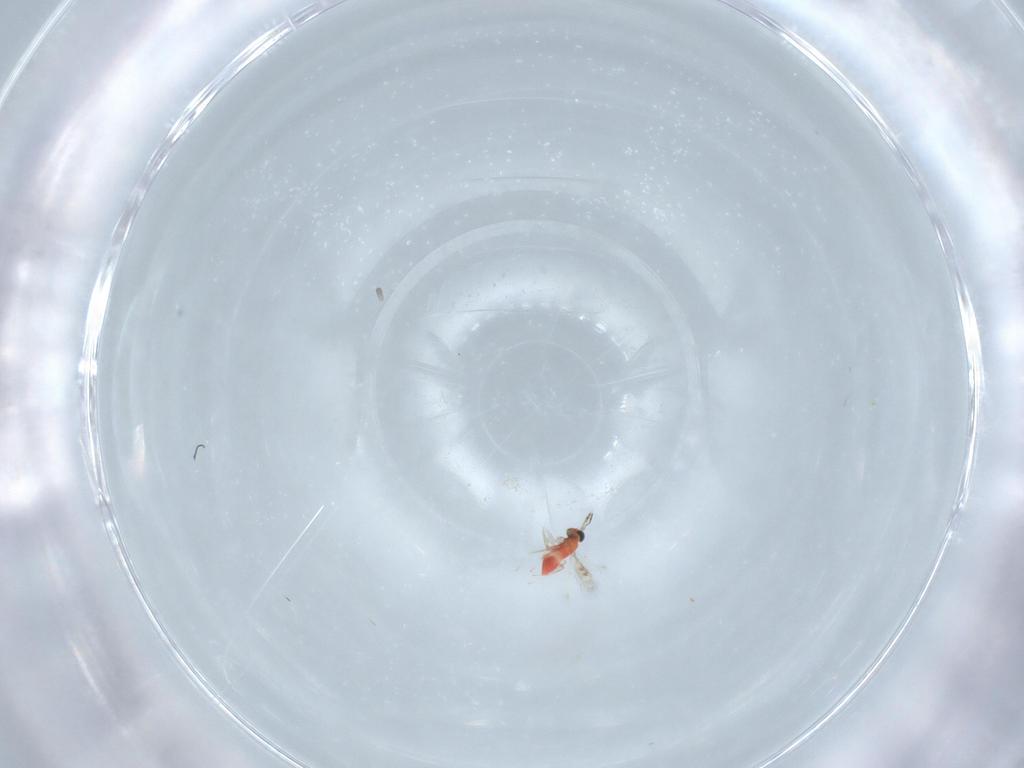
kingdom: Animalia
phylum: Arthropoda
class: Insecta
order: Hymenoptera
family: Trichogrammatidae
